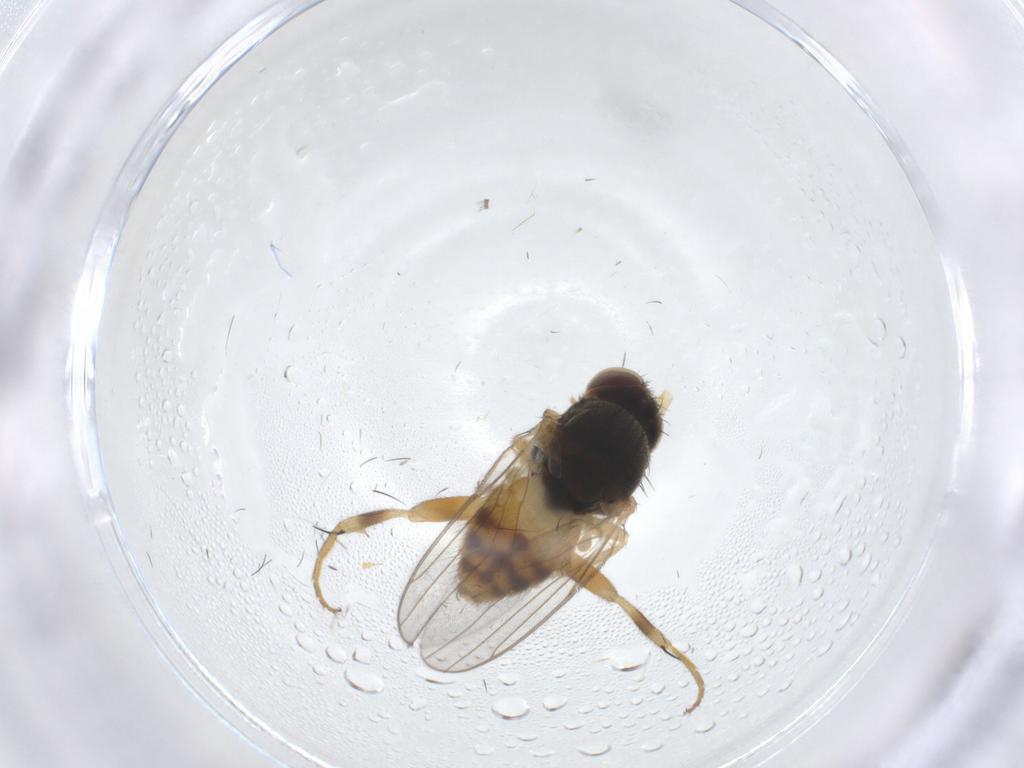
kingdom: Animalia
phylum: Arthropoda
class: Insecta
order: Diptera
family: Chloropidae
